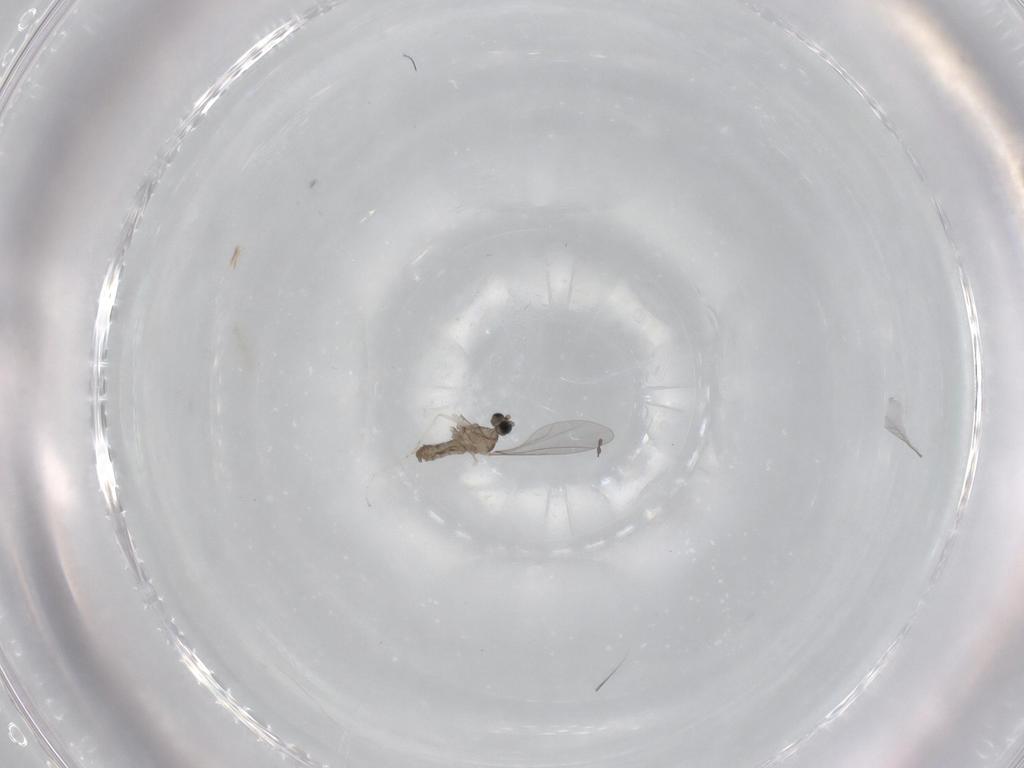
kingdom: Animalia
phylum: Arthropoda
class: Insecta
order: Diptera
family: Cecidomyiidae
